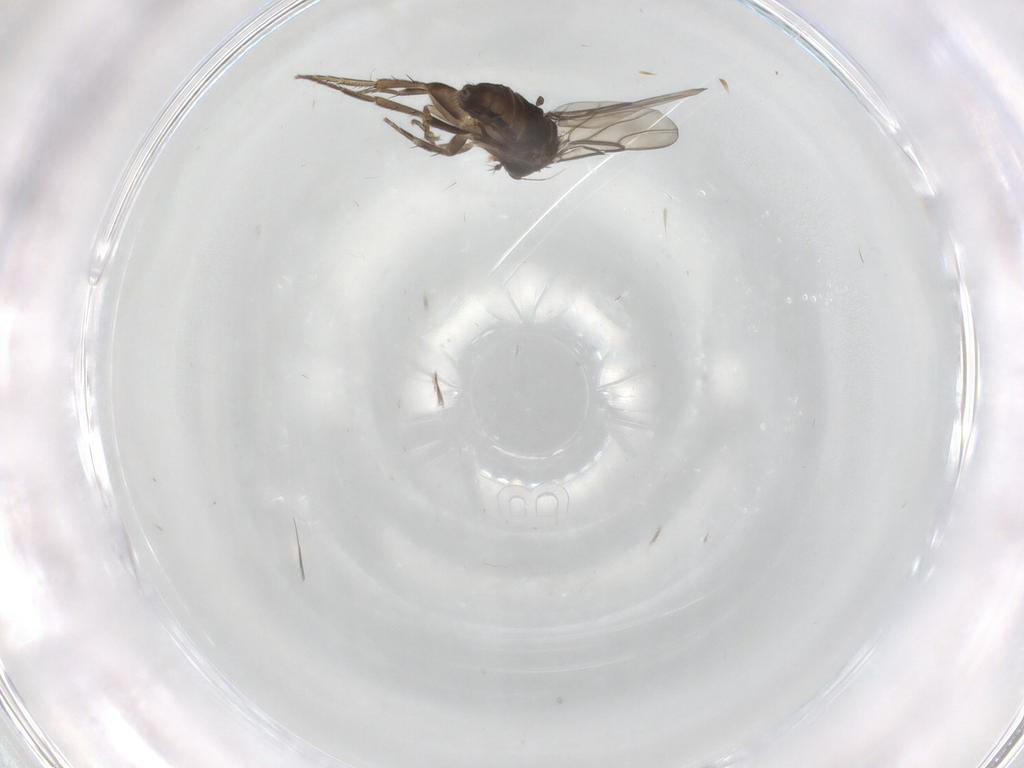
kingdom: Animalia
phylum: Arthropoda
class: Insecta
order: Diptera
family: Sciaridae
